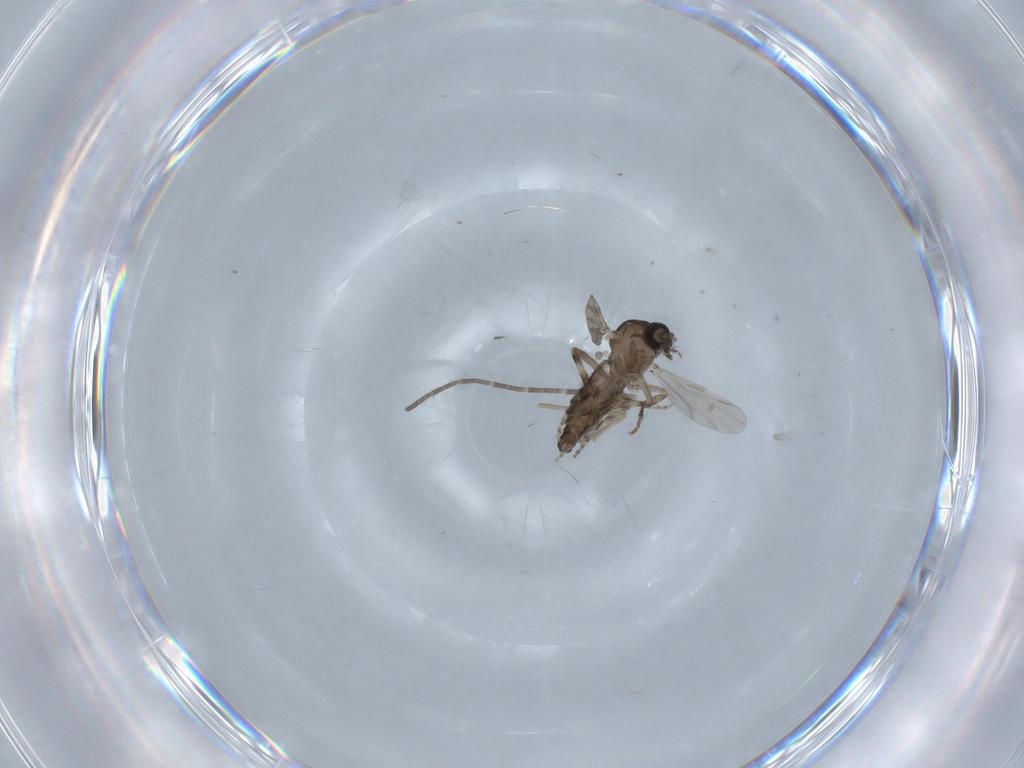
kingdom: Animalia
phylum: Arthropoda
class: Insecta
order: Diptera
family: Ceratopogonidae
